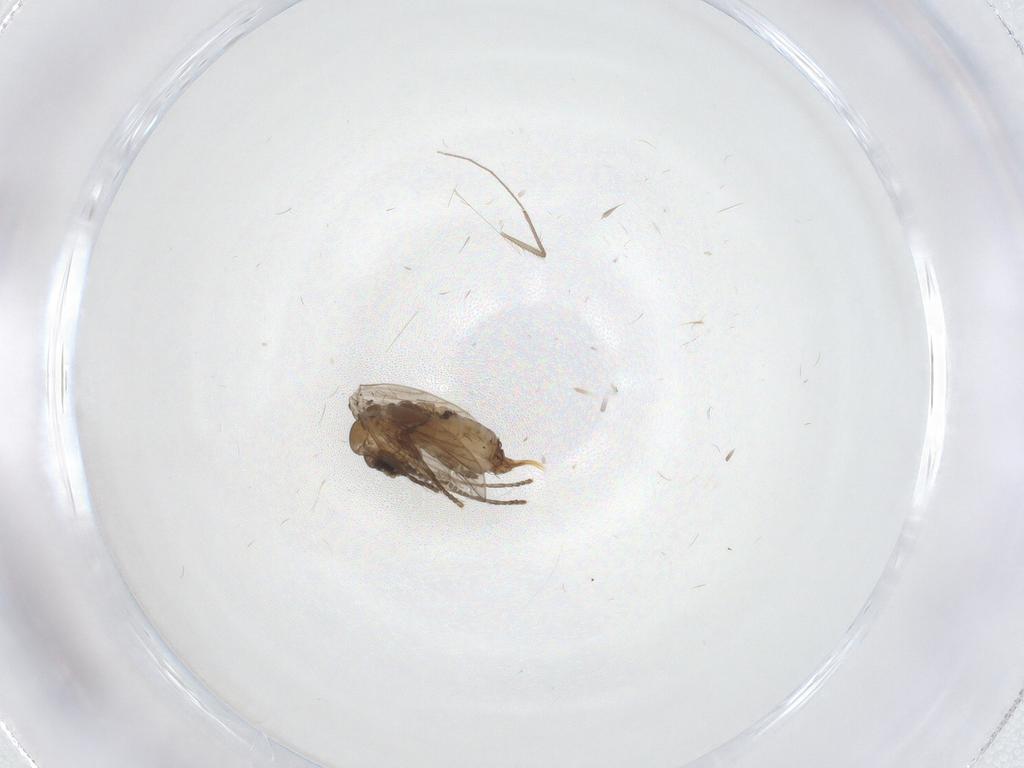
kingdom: Animalia
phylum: Arthropoda
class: Insecta
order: Diptera
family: Psychodidae
